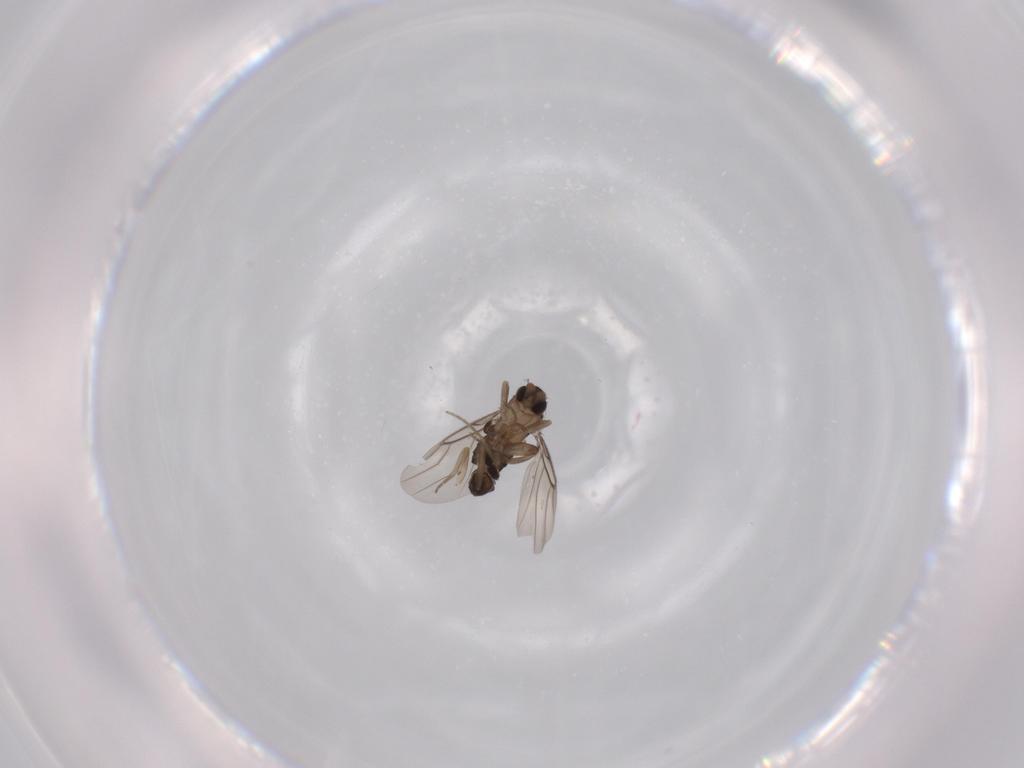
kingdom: Animalia
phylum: Arthropoda
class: Insecta
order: Diptera
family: Phoridae
